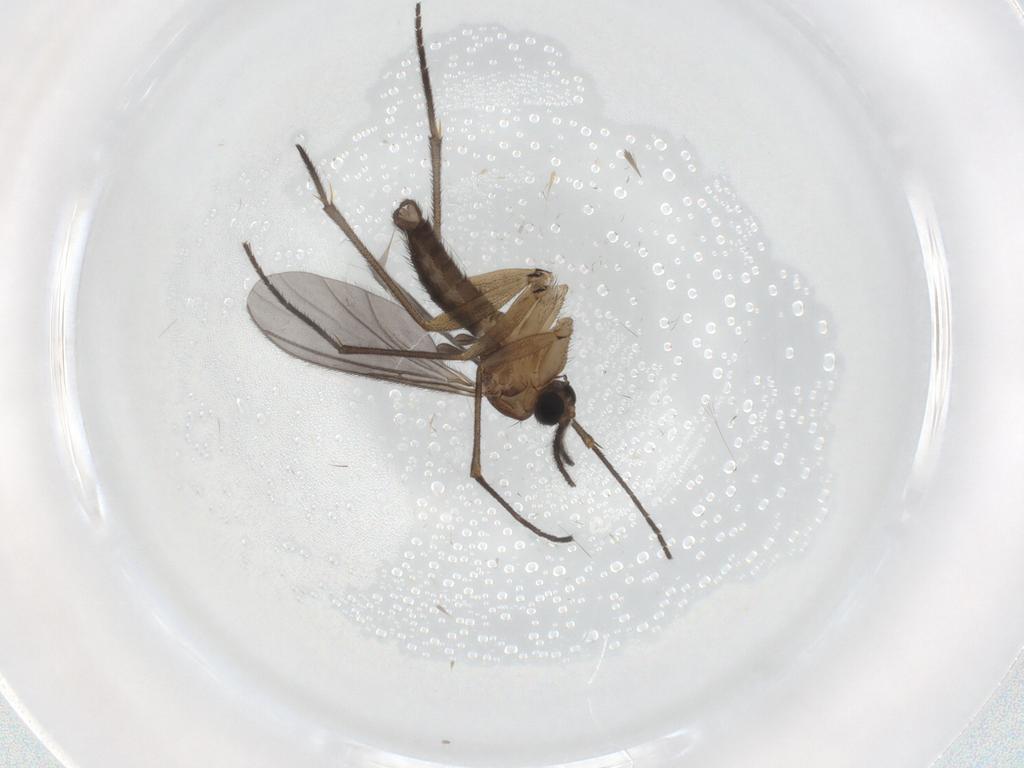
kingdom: Animalia
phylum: Arthropoda
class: Insecta
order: Diptera
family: Sciaridae
